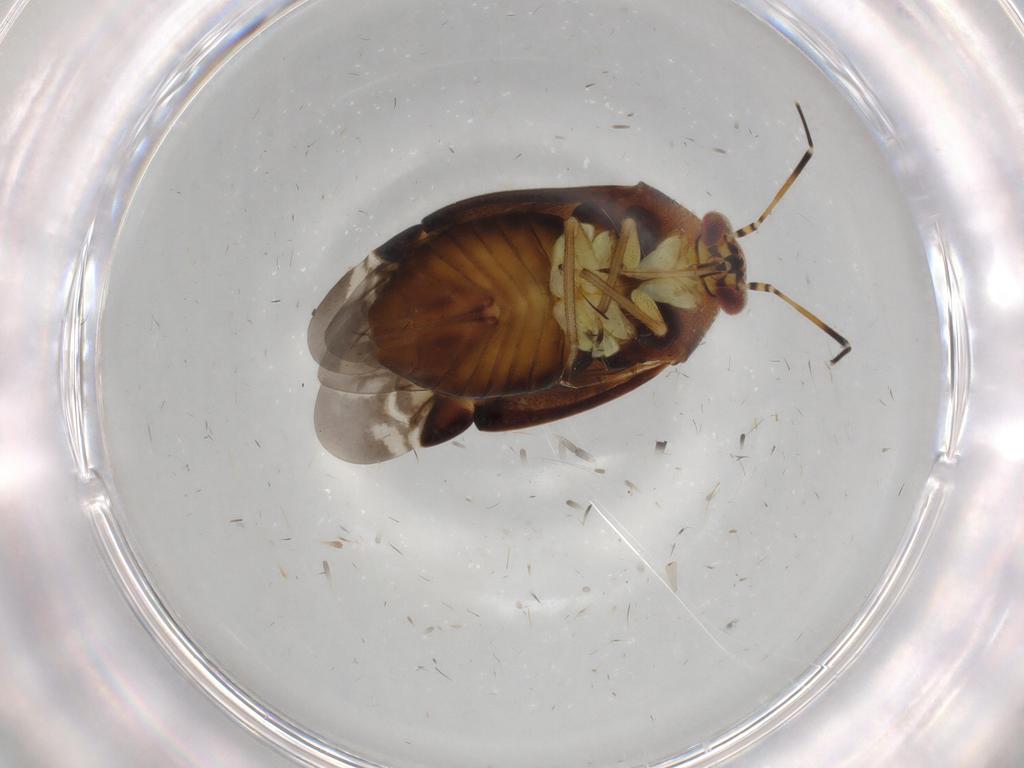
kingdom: Animalia
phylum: Arthropoda
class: Insecta
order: Hemiptera
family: Miridae
